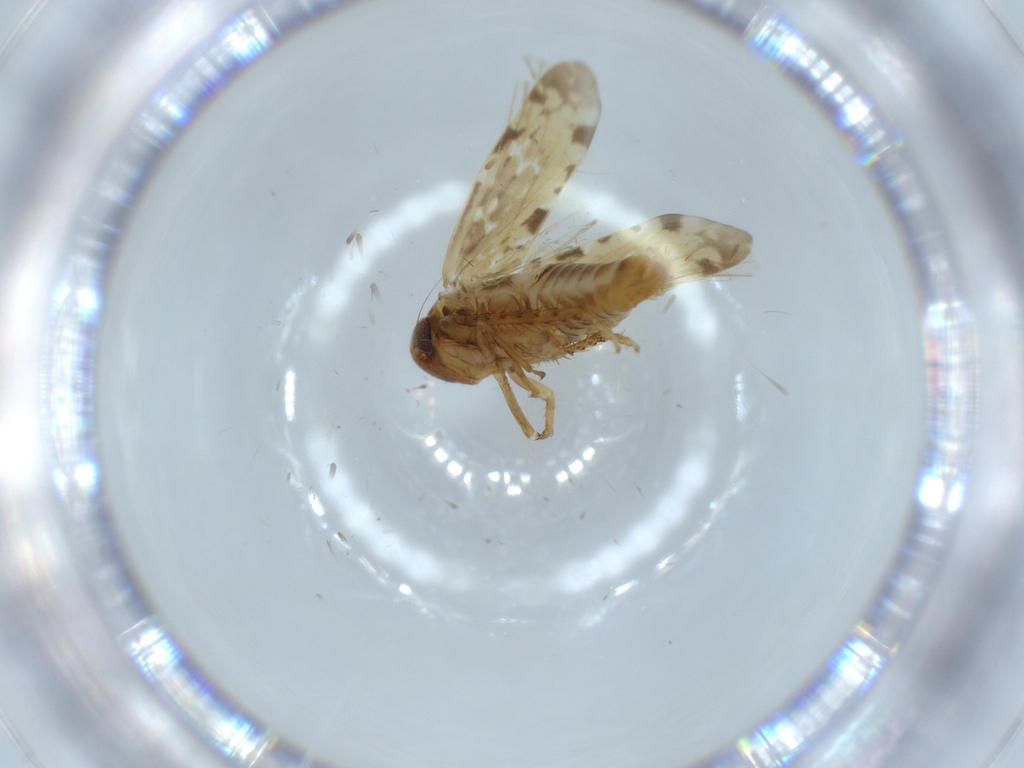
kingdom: Animalia
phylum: Arthropoda
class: Insecta
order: Hemiptera
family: Cicadellidae
